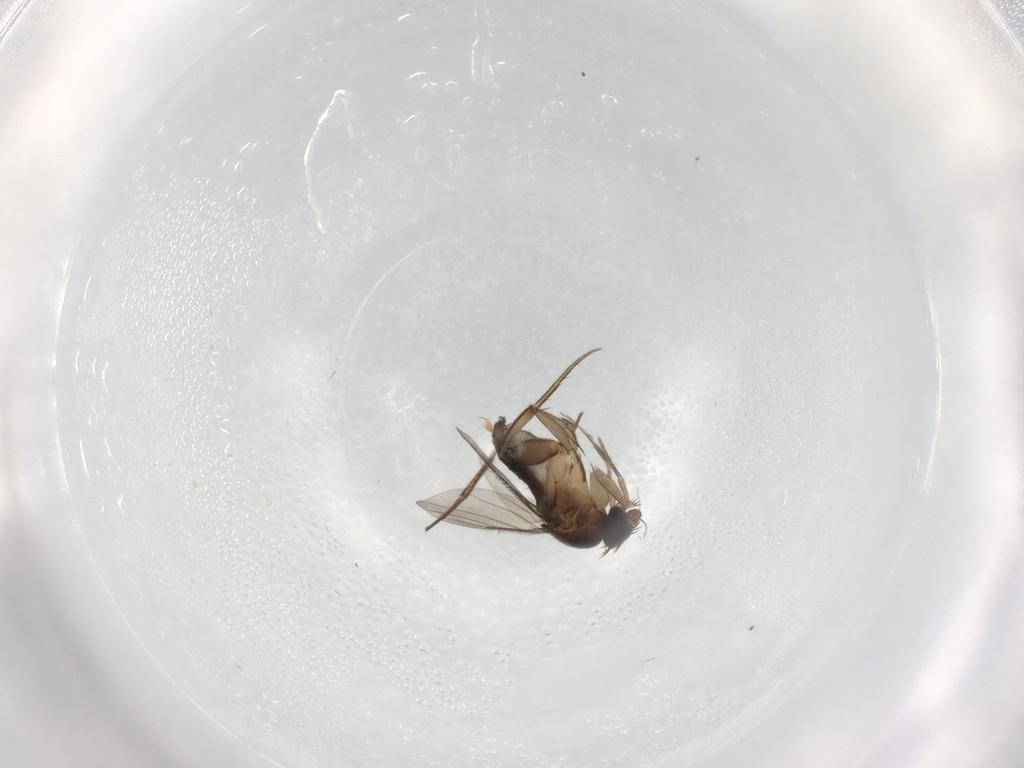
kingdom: Animalia
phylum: Arthropoda
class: Insecta
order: Diptera
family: Phoridae
